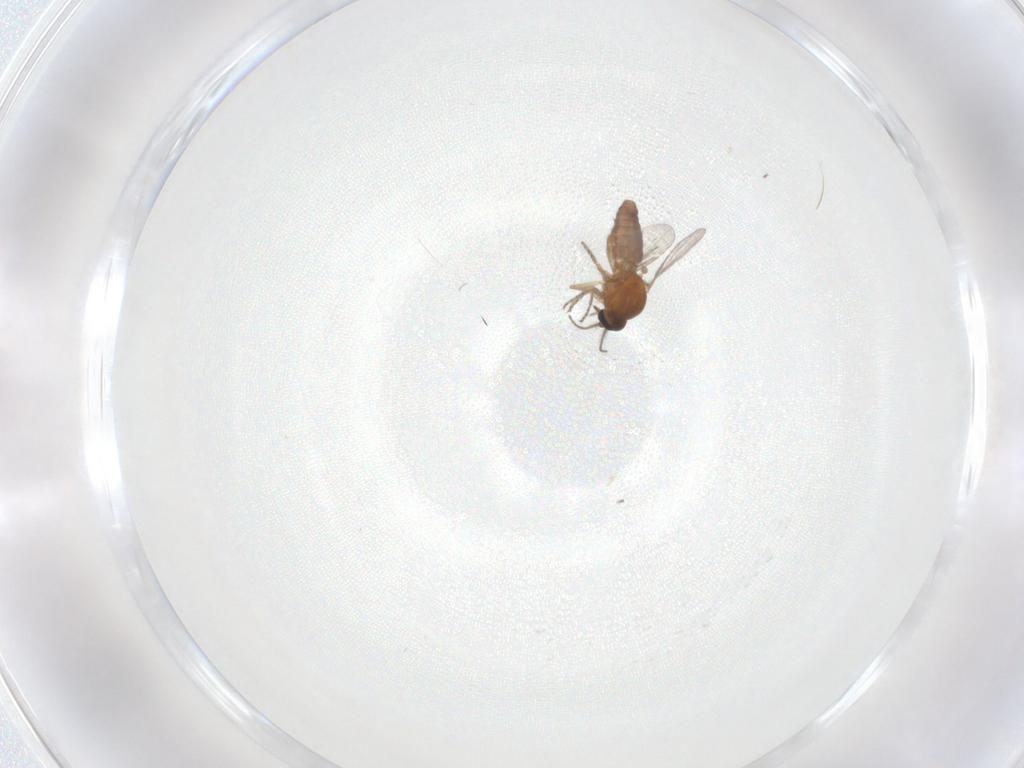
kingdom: Animalia
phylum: Arthropoda
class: Insecta
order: Diptera
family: Ceratopogonidae
